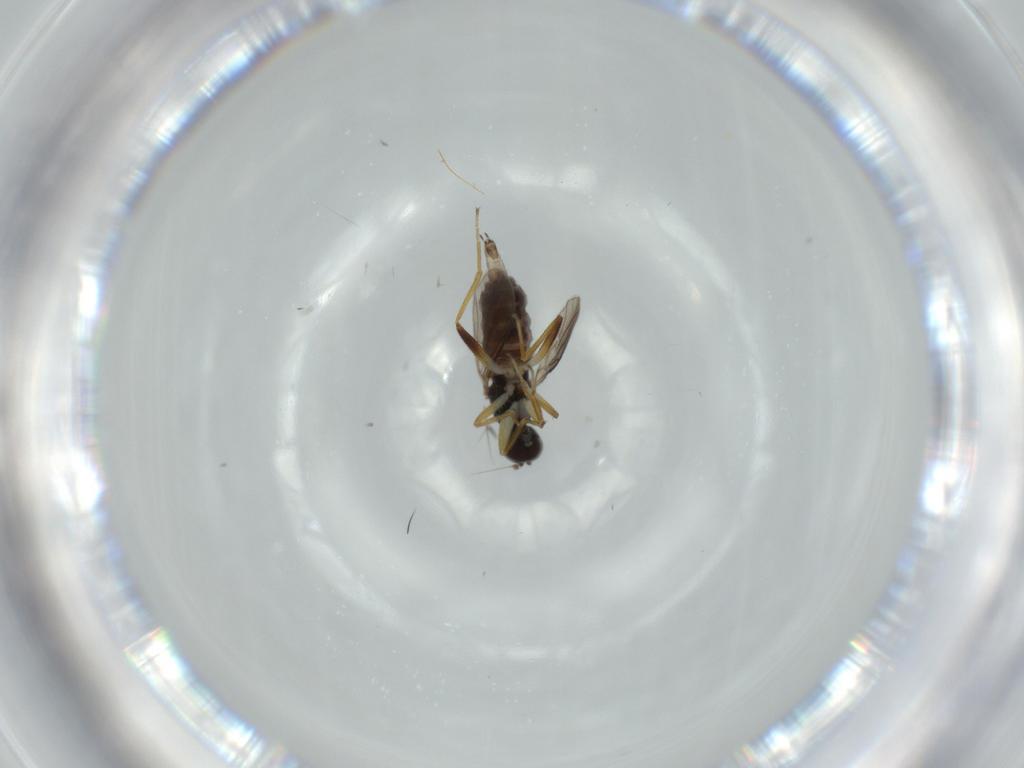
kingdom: Animalia
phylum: Arthropoda
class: Insecta
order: Diptera
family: Hybotidae
